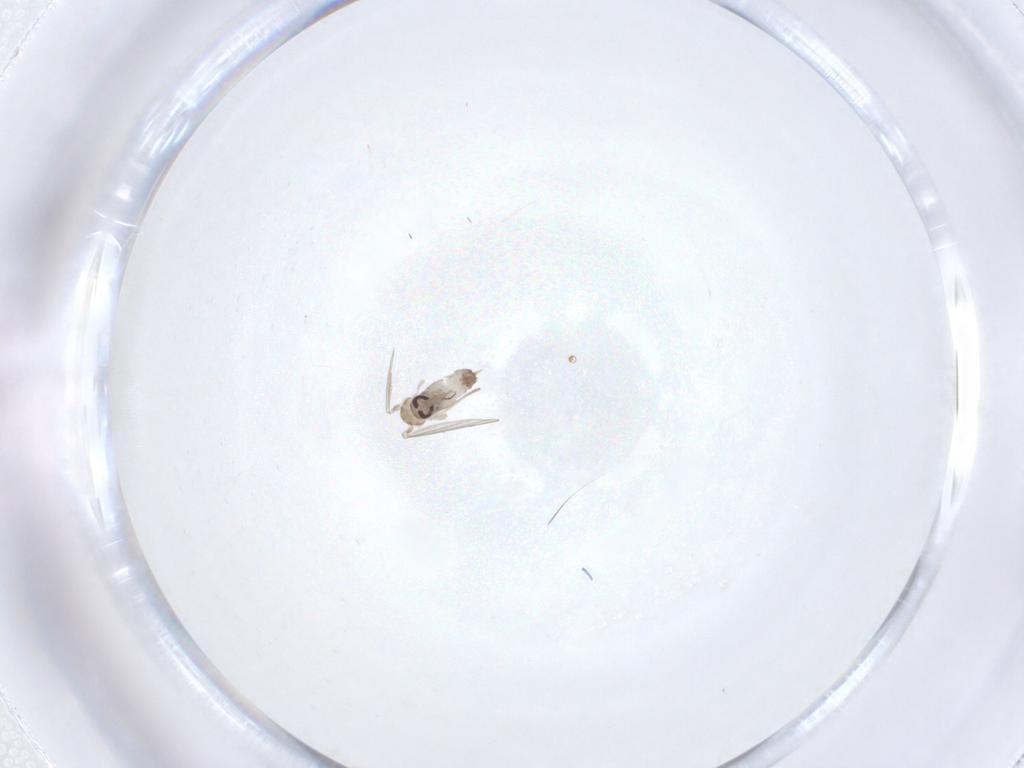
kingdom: Animalia
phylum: Arthropoda
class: Insecta
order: Diptera
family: Psychodidae
